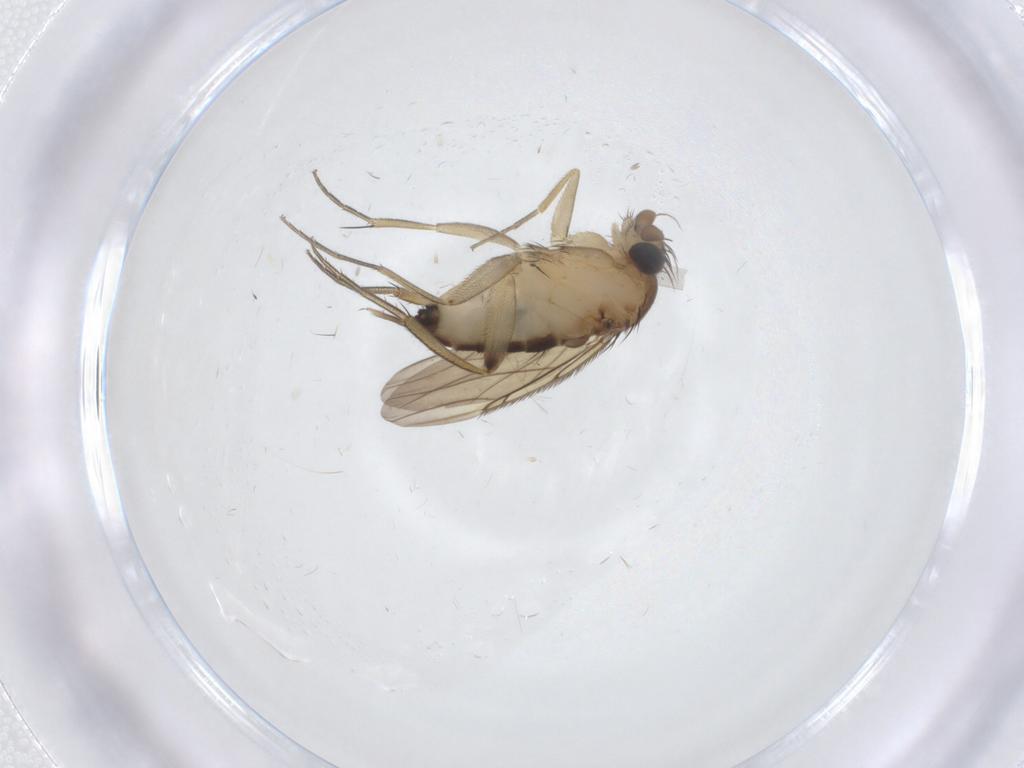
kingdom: Animalia
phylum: Arthropoda
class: Insecta
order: Diptera
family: Phoridae
